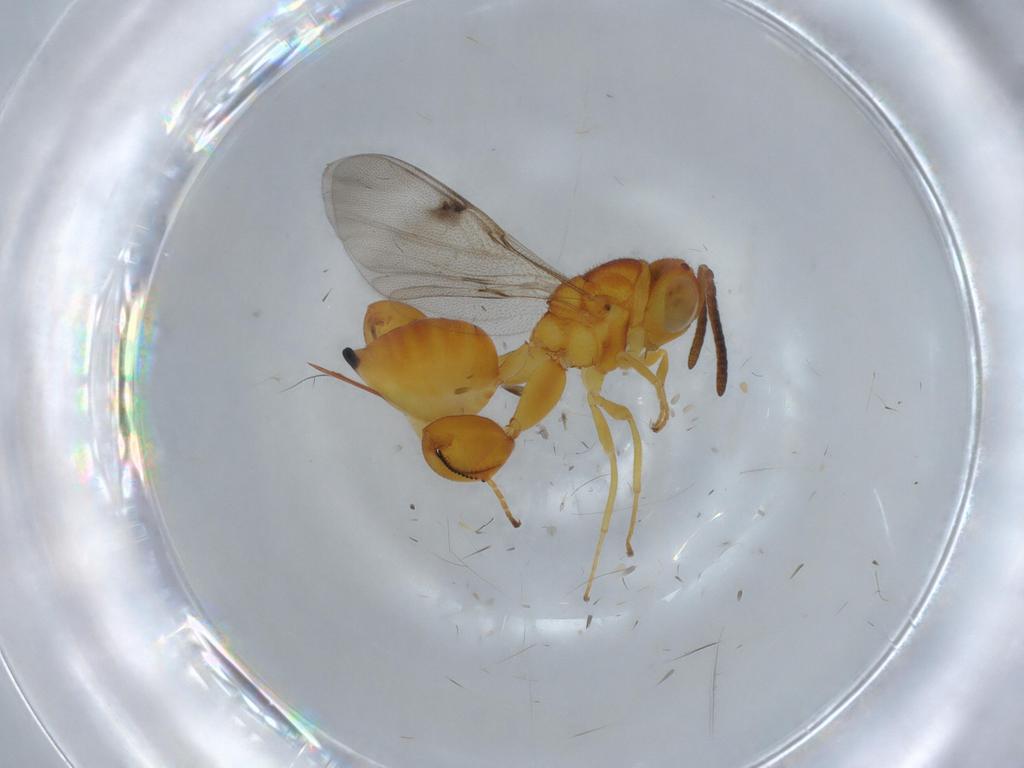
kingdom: Animalia
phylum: Arthropoda
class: Insecta
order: Hymenoptera
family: Chalcididae
